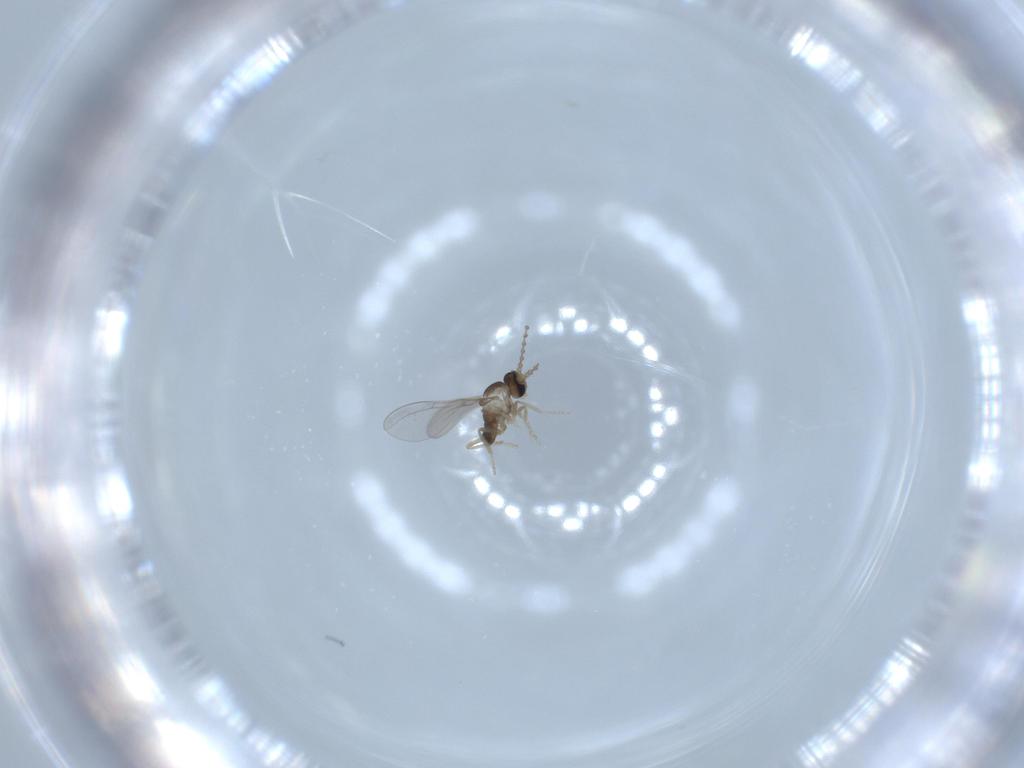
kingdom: Animalia
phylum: Arthropoda
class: Insecta
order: Diptera
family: Cecidomyiidae
